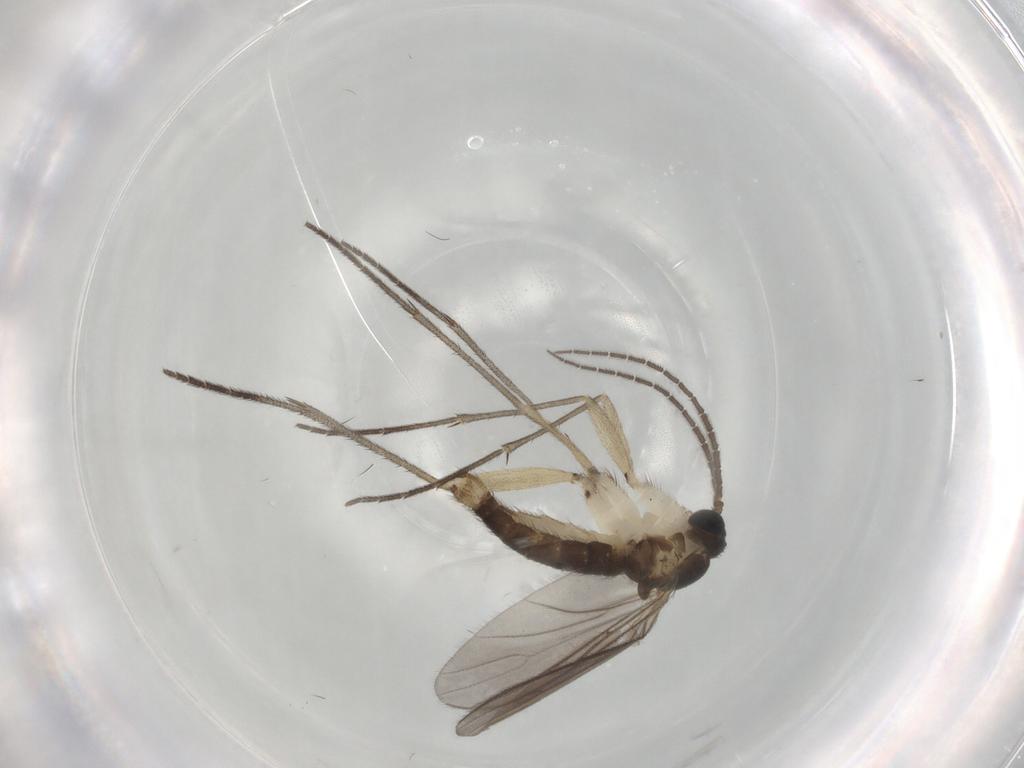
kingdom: Animalia
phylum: Arthropoda
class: Insecta
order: Diptera
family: Sciaridae
